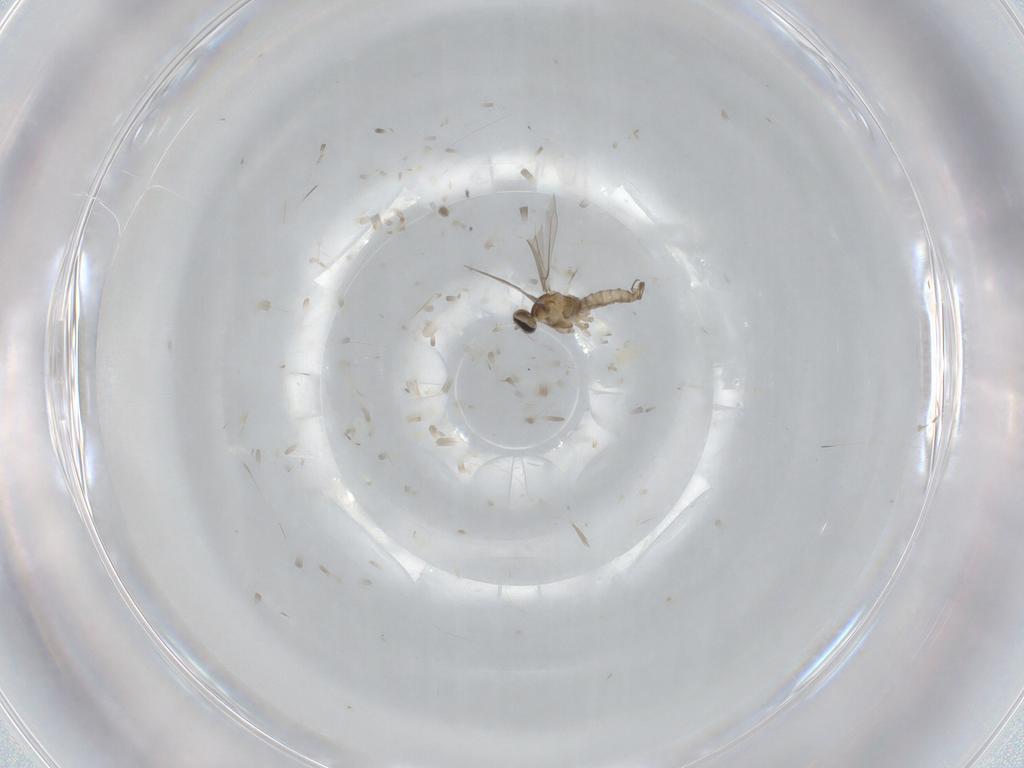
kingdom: Animalia
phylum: Arthropoda
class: Insecta
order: Diptera
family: Cecidomyiidae
